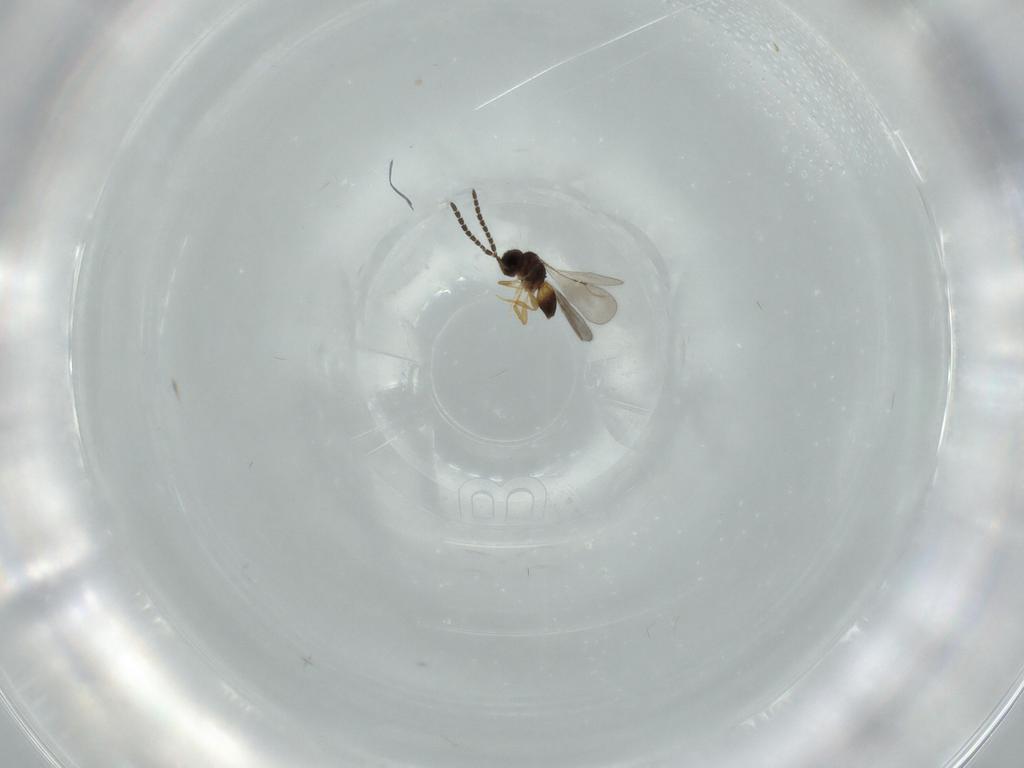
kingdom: Animalia
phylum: Arthropoda
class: Insecta
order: Hymenoptera
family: Ceraphronidae
